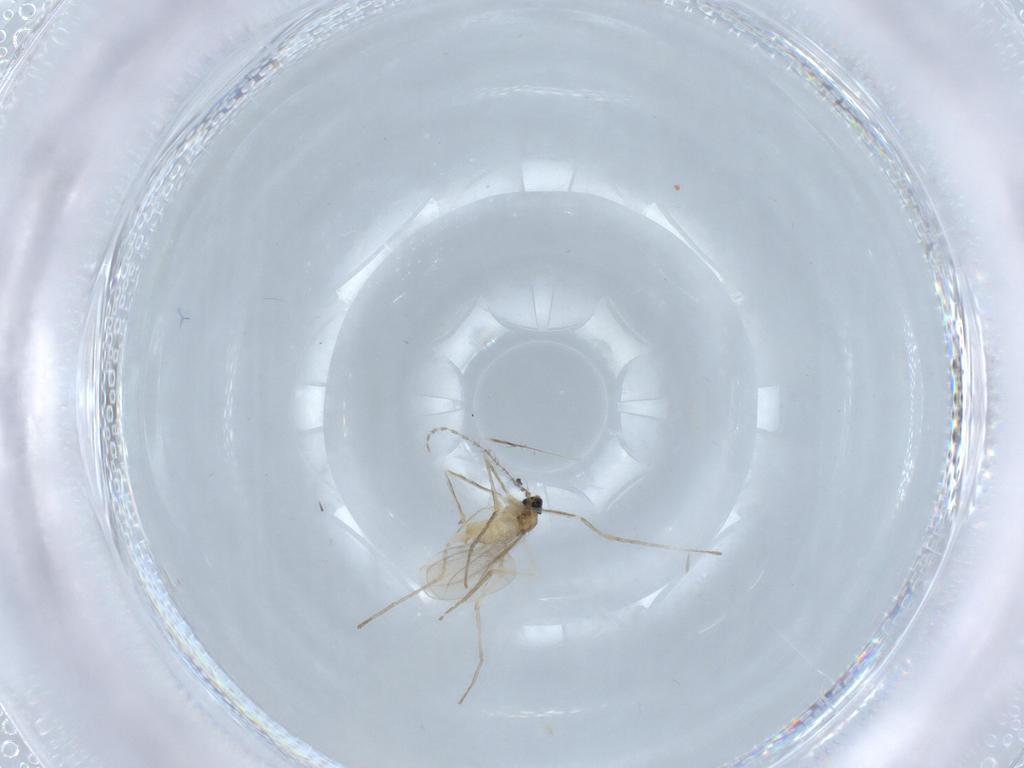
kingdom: Animalia
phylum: Arthropoda
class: Insecta
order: Diptera
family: Cecidomyiidae
